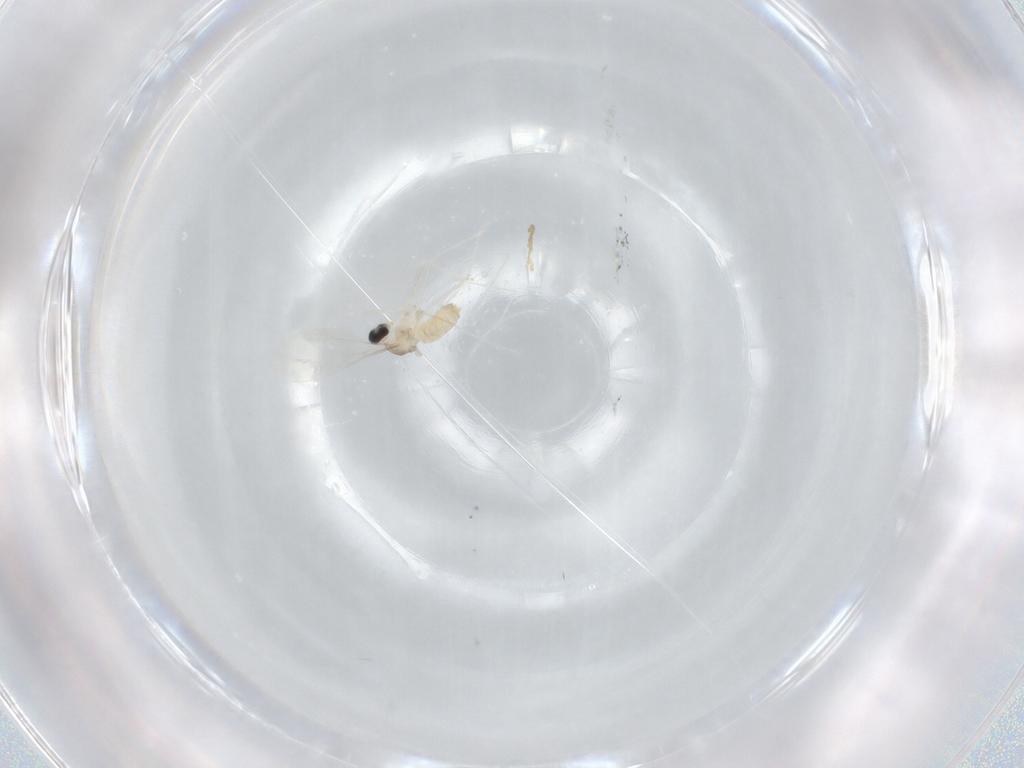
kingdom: Animalia
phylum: Arthropoda
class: Insecta
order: Diptera
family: Cecidomyiidae
